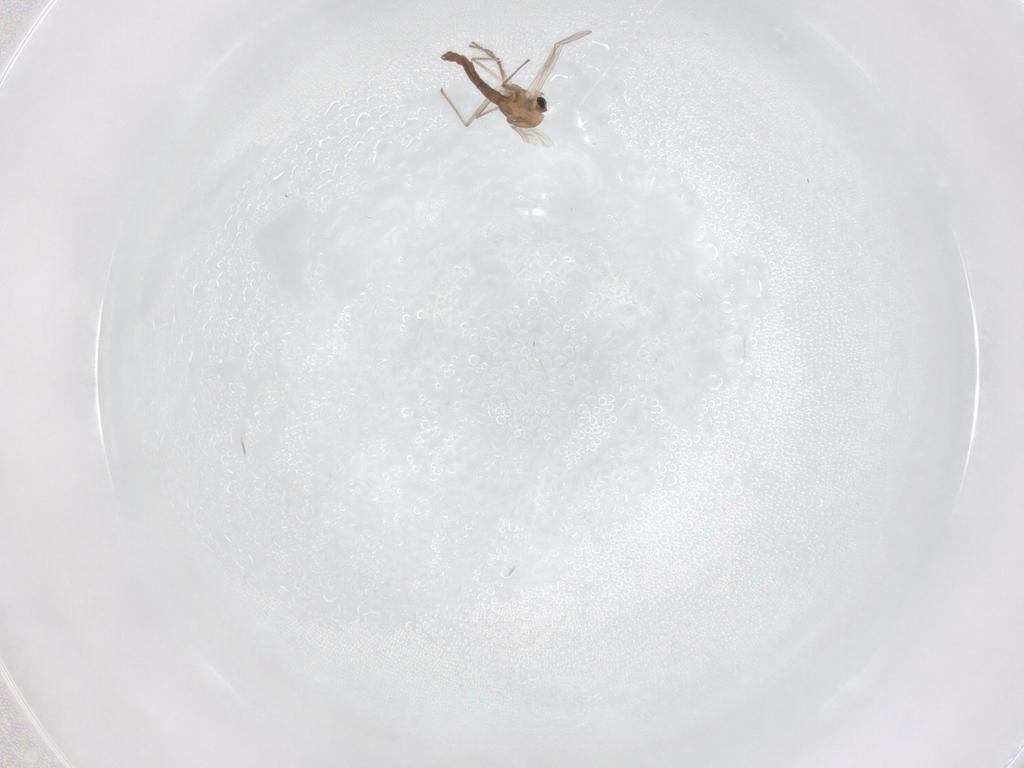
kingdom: Animalia
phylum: Arthropoda
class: Insecta
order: Diptera
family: Chironomidae
